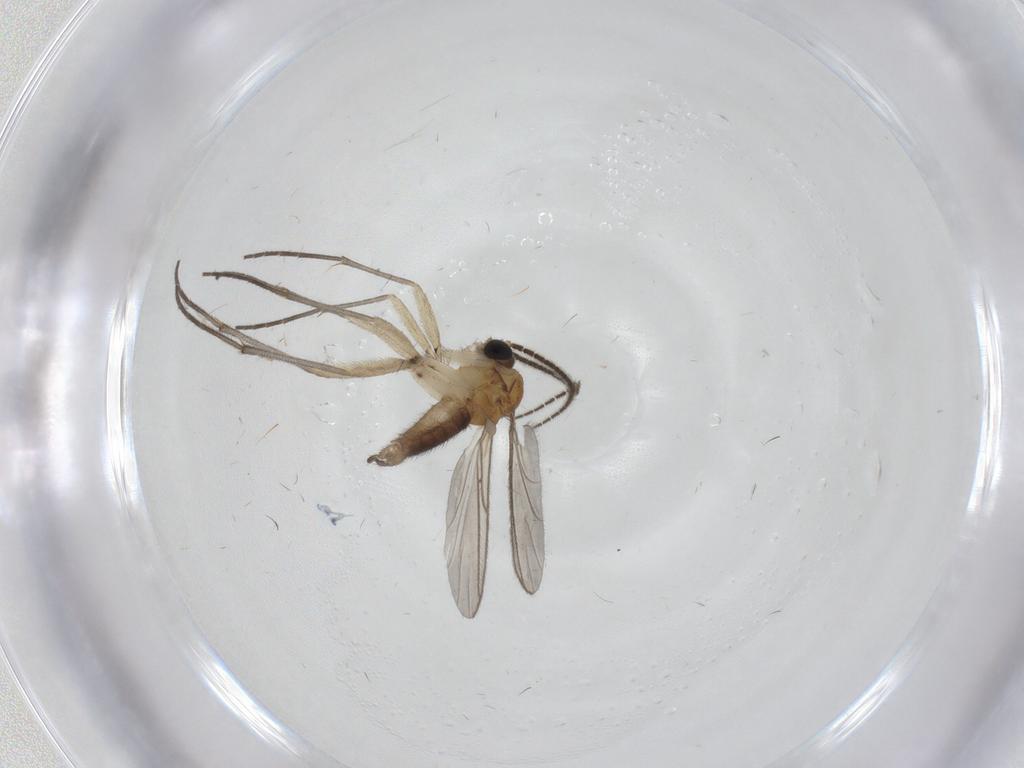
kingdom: Animalia
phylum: Arthropoda
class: Insecta
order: Diptera
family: Sciaridae
